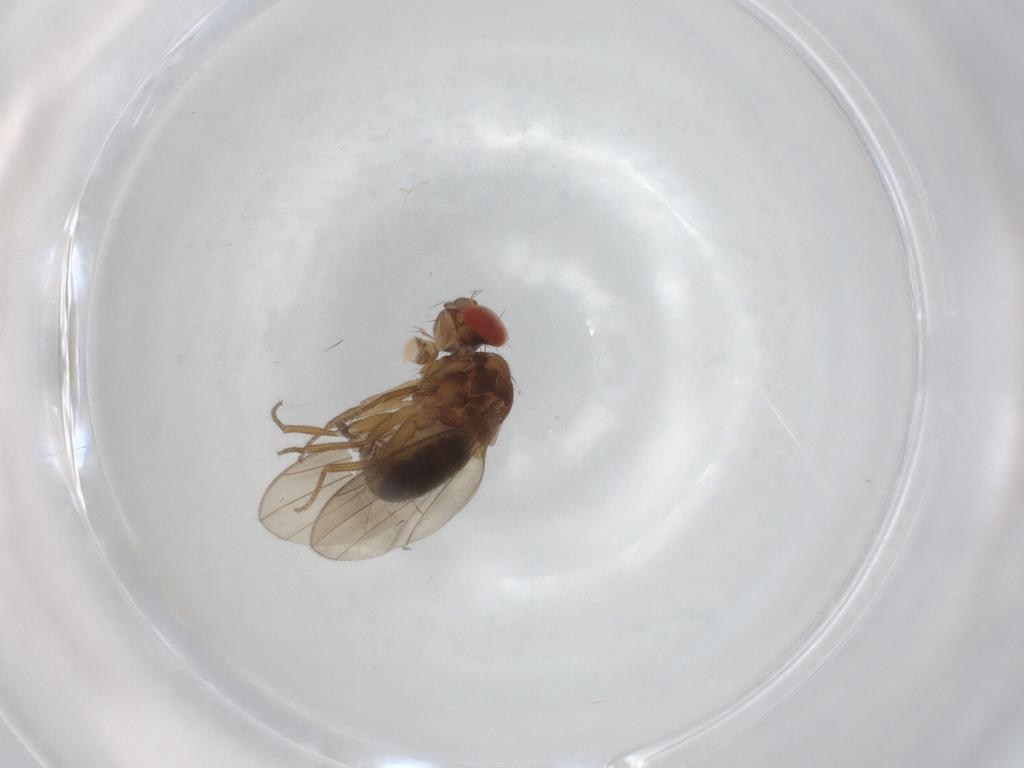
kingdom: Animalia
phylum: Arthropoda
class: Insecta
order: Diptera
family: Drosophilidae
